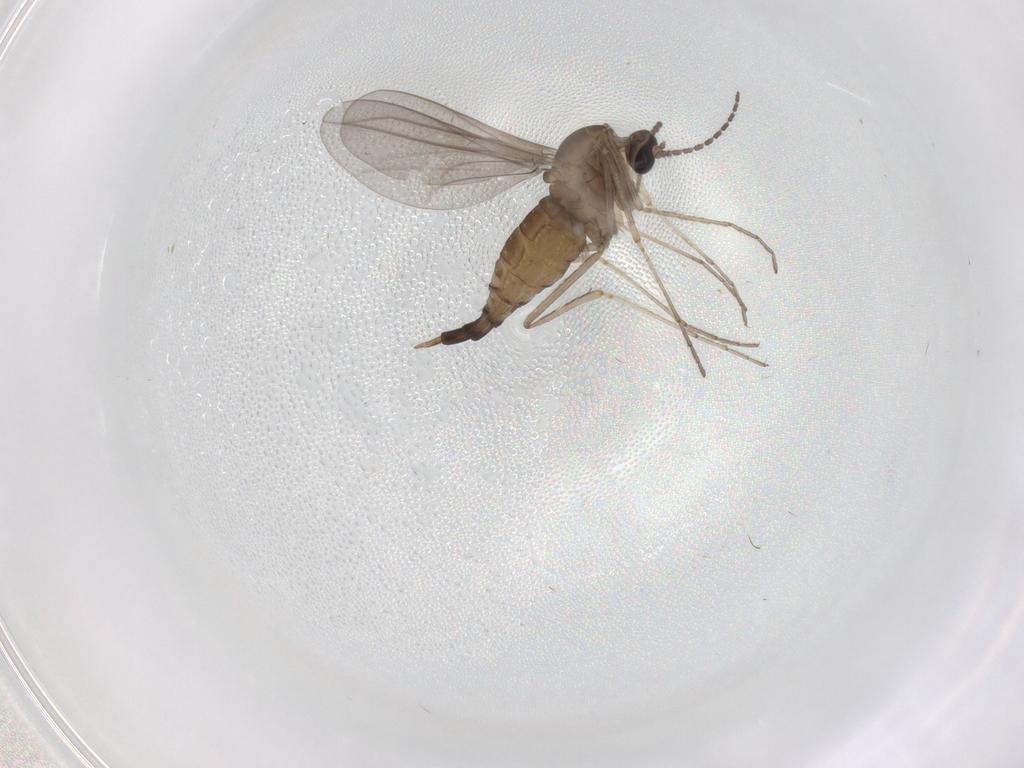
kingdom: Animalia
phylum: Arthropoda
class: Insecta
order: Diptera
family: Cecidomyiidae
